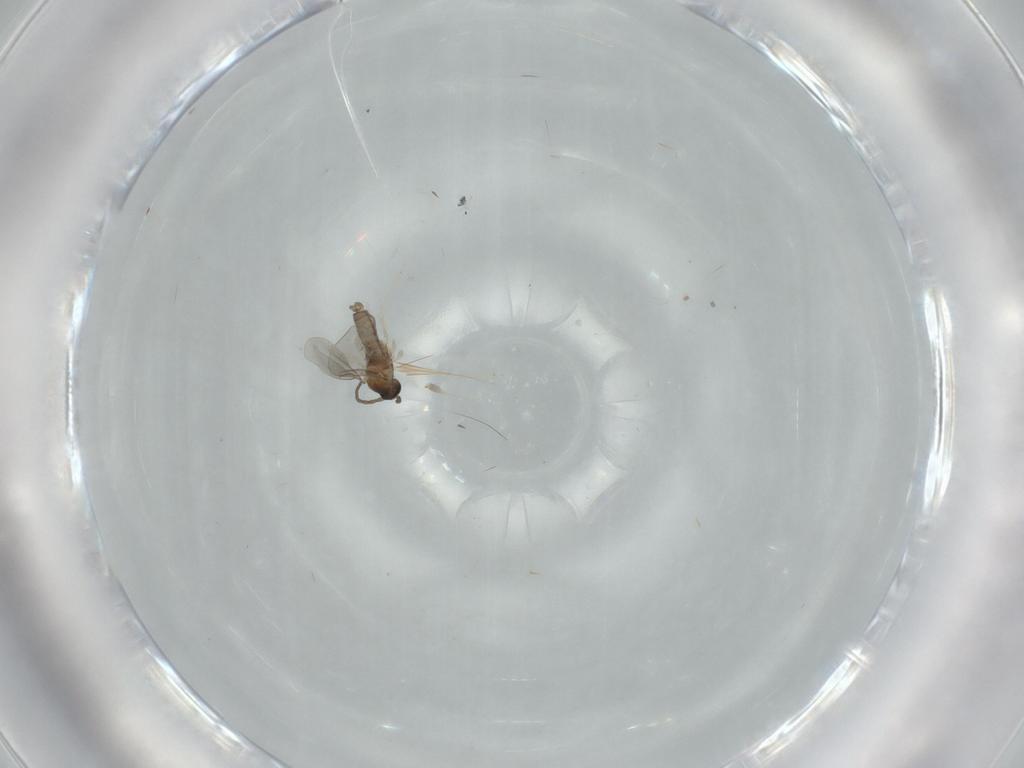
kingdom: Animalia
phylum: Arthropoda
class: Insecta
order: Diptera
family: Cecidomyiidae
